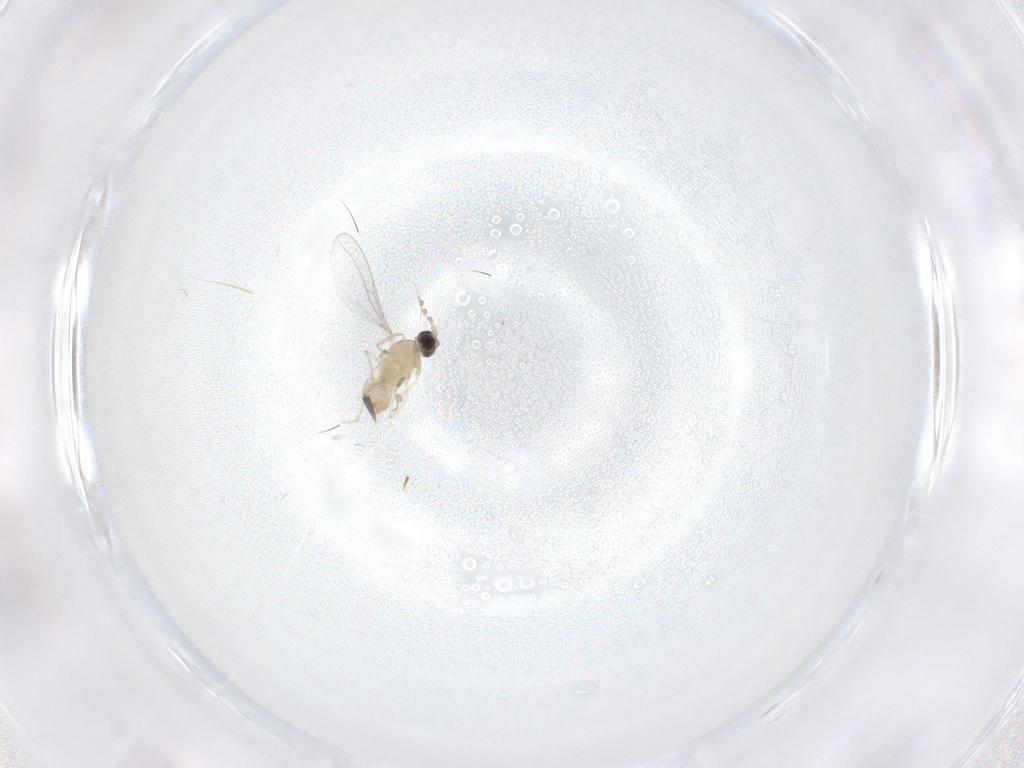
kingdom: Animalia
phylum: Arthropoda
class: Insecta
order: Diptera
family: Cecidomyiidae
